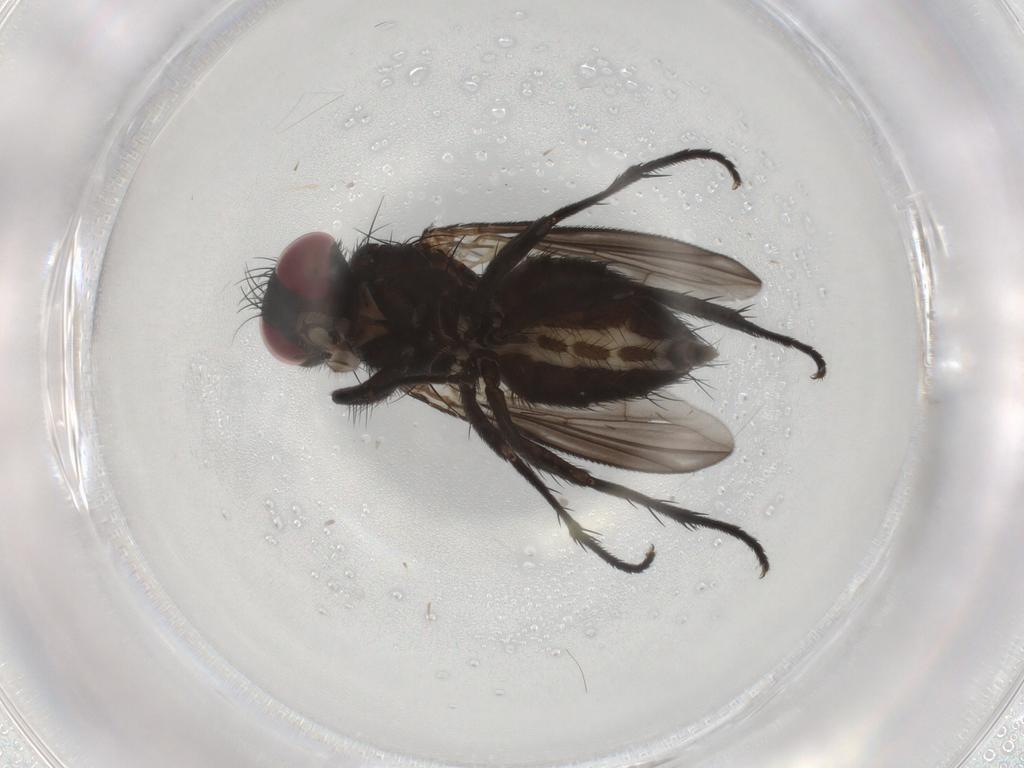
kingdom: Animalia
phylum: Arthropoda
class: Insecta
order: Diptera
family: Calliphoridae
